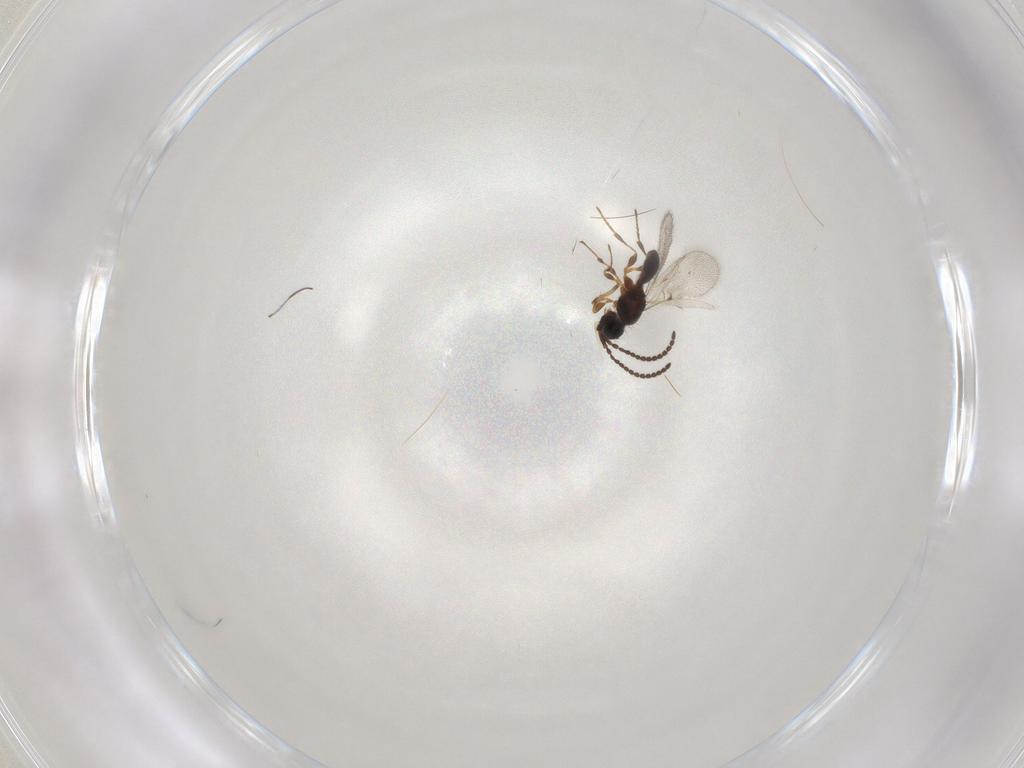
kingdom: Animalia
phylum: Arthropoda
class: Insecta
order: Hymenoptera
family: Diapriidae
